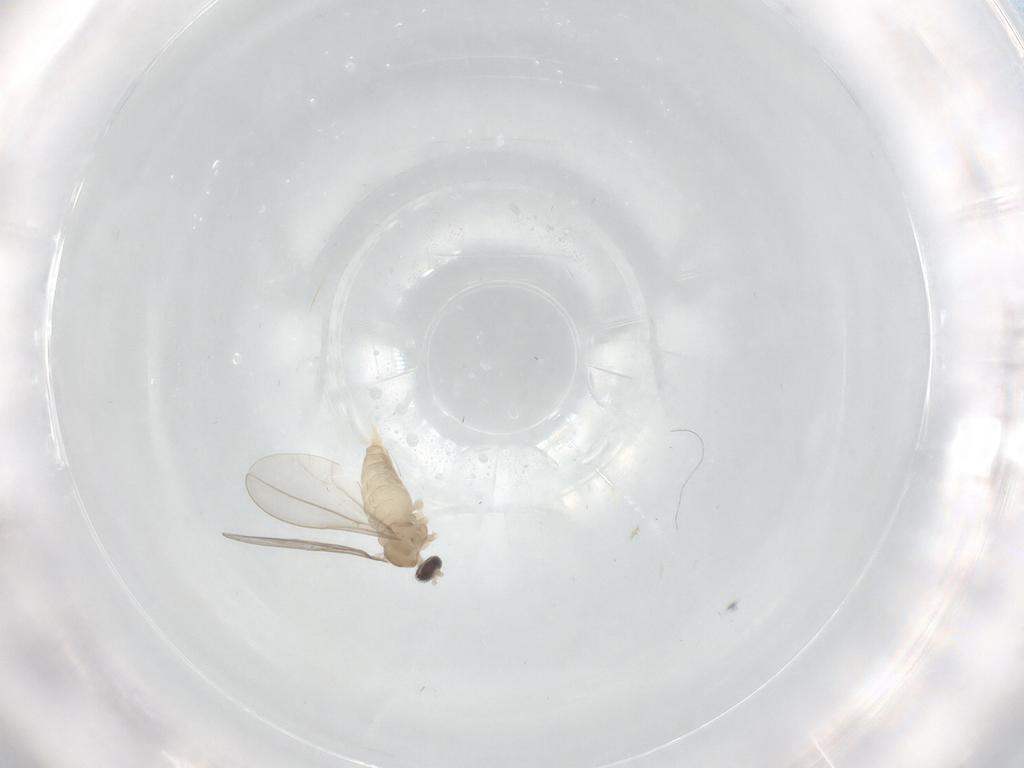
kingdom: Animalia
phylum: Arthropoda
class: Insecta
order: Diptera
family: Cecidomyiidae
